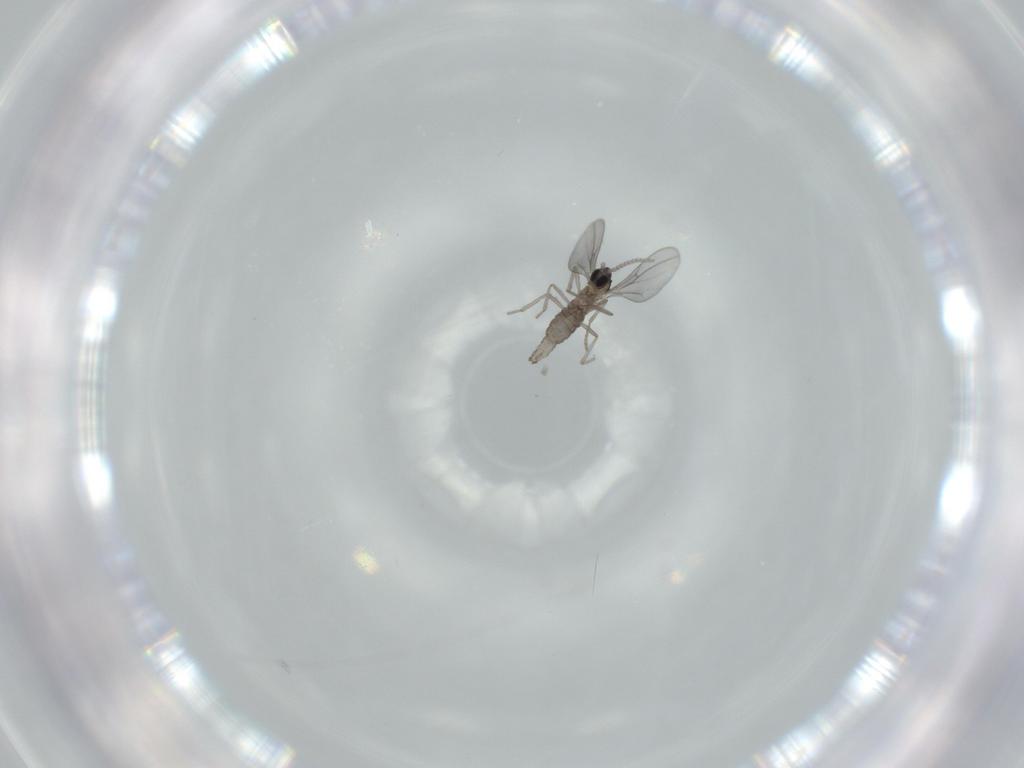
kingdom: Animalia
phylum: Arthropoda
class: Insecta
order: Diptera
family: Cecidomyiidae
